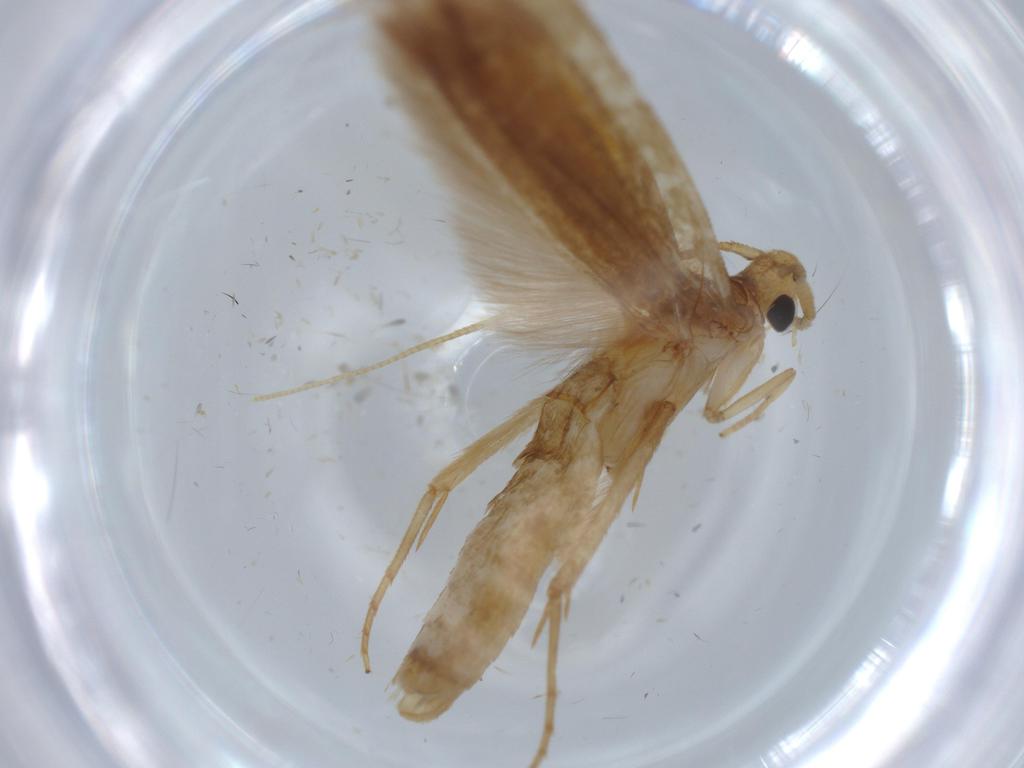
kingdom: Animalia
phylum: Arthropoda
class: Insecta
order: Lepidoptera
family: Tineidae
